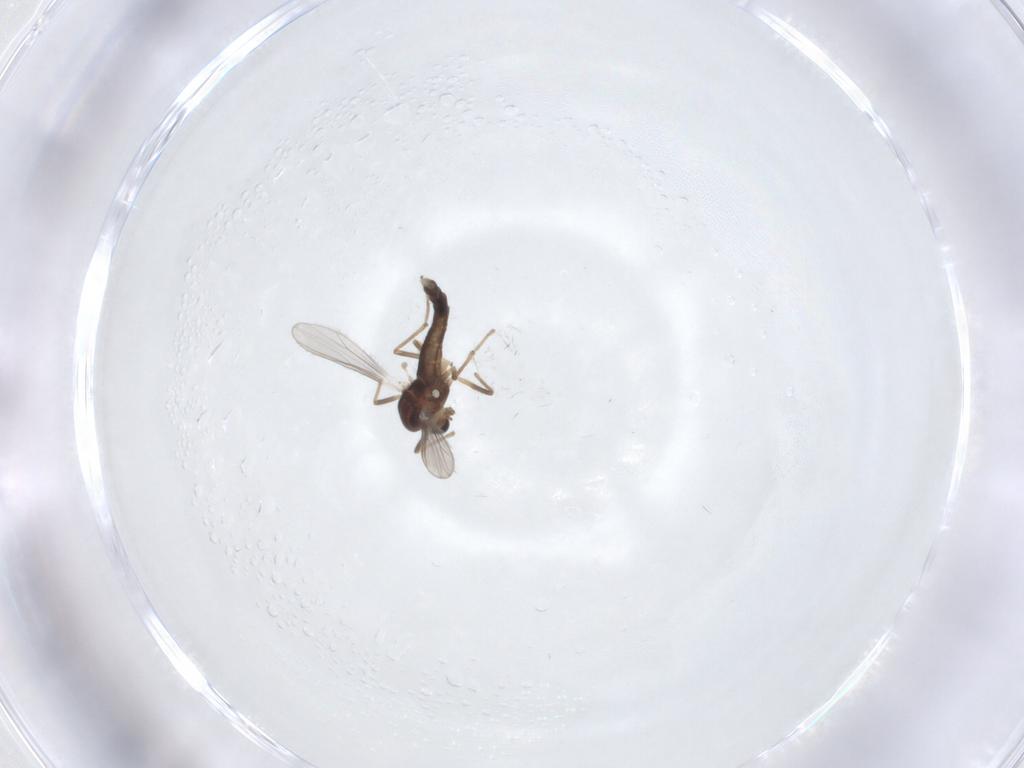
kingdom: Animalia
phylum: Arthropoda
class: Insecta
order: Diptera
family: Chironomidae
